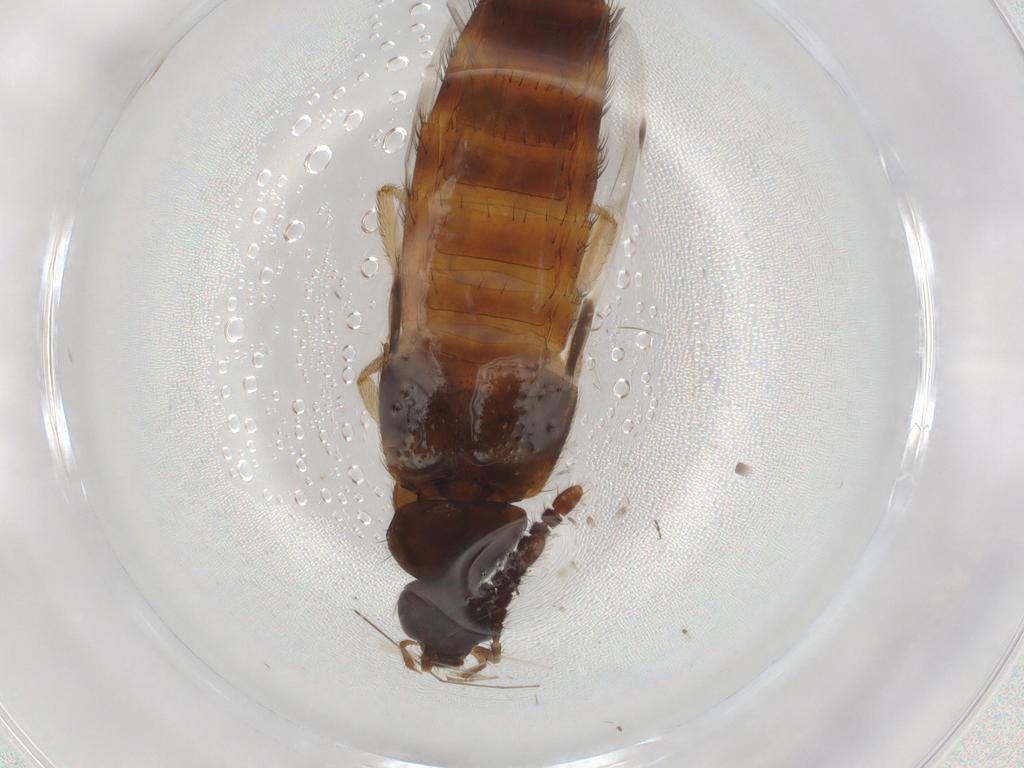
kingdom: Animalia
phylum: Arthropoda
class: Insecta
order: Coleoptera
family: Staphylinidae
